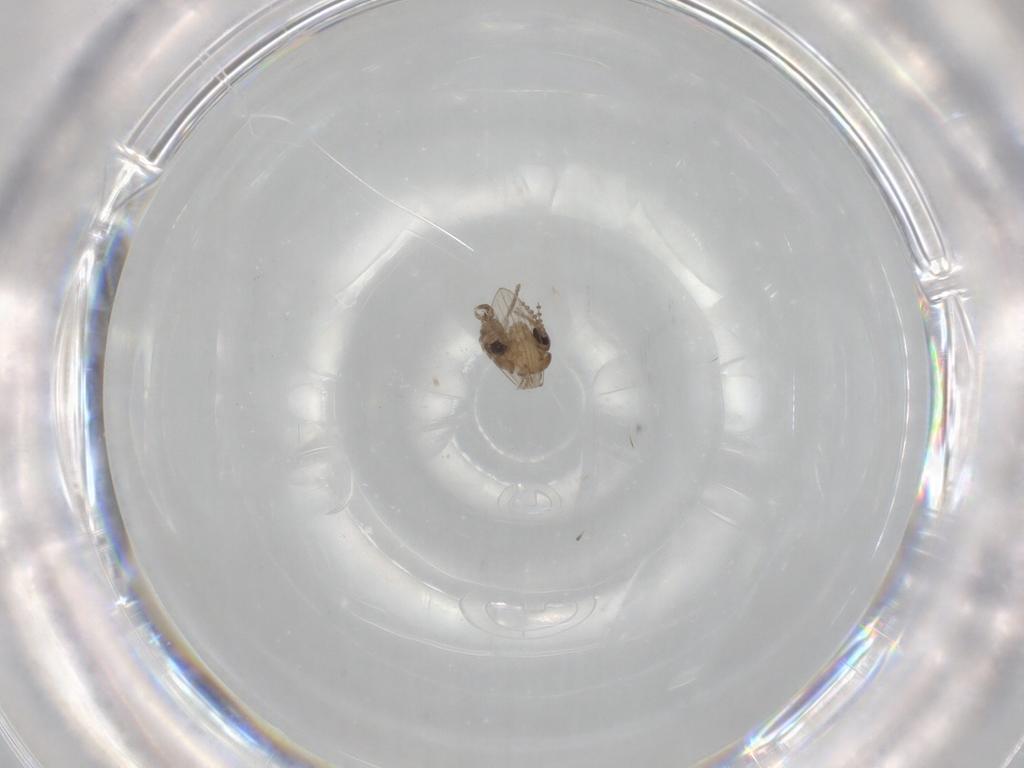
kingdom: Animalia
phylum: Arthropoda
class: Insecta
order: Diptera
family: Psychodidae
